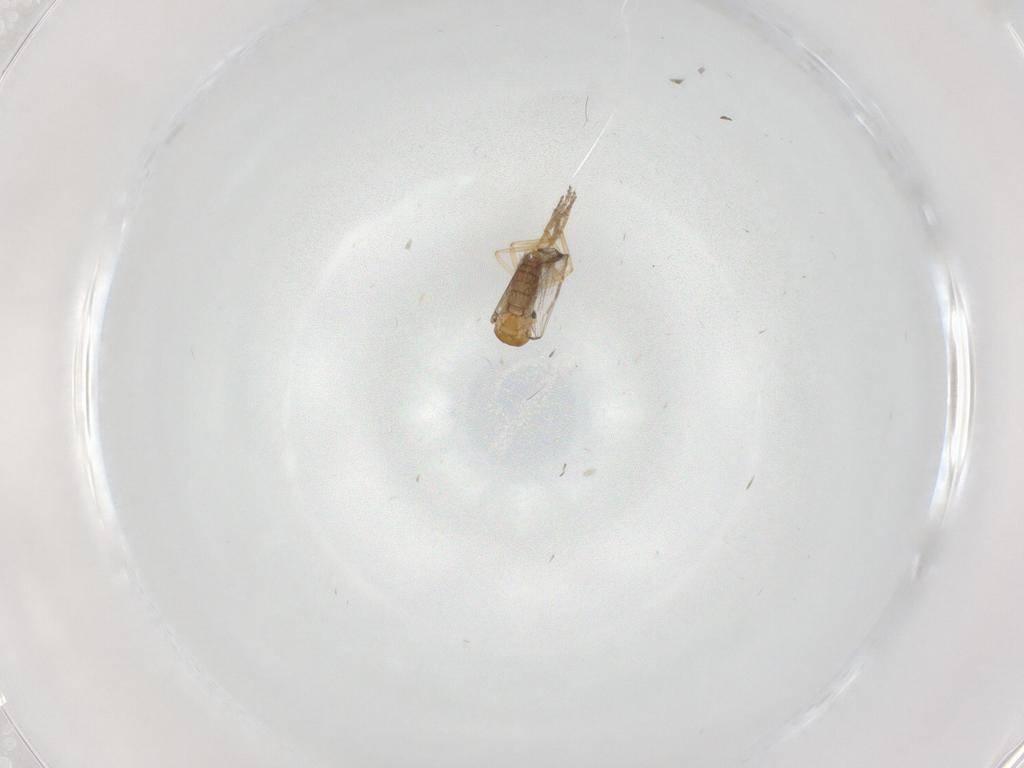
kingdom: Animalia
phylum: Arthropoda
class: Insecta
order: Diptera
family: Ceratopogonidae
